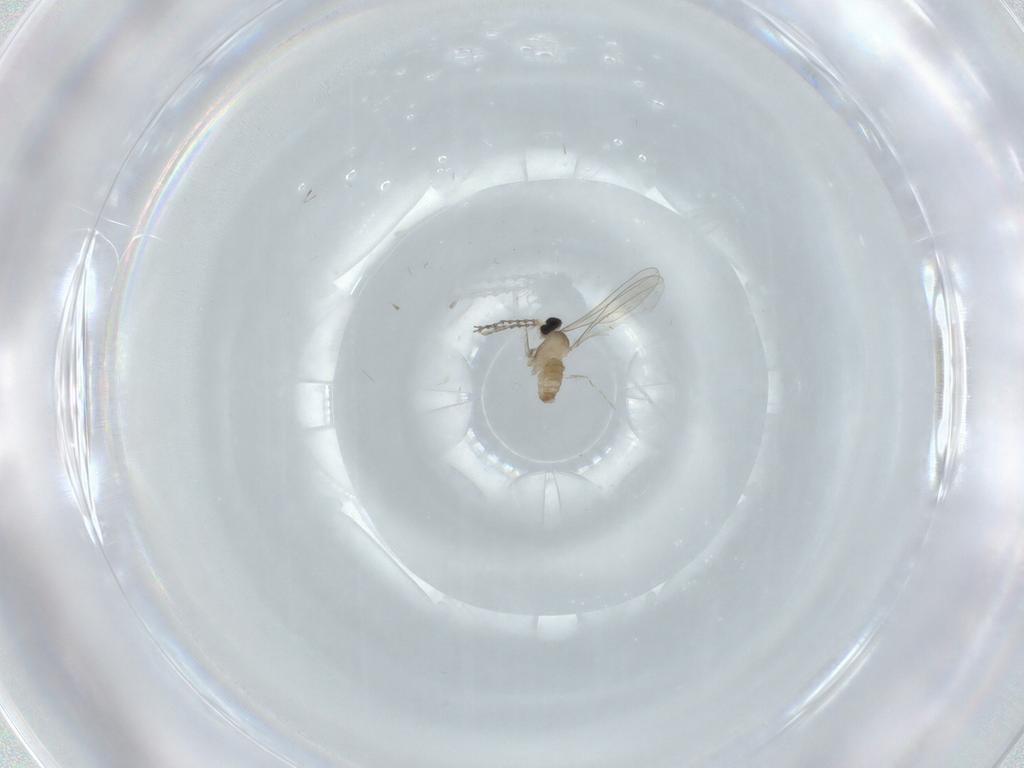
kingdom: Animalia
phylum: Arthropoda
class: Insecta
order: Diptera
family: Cecidomyiidae
